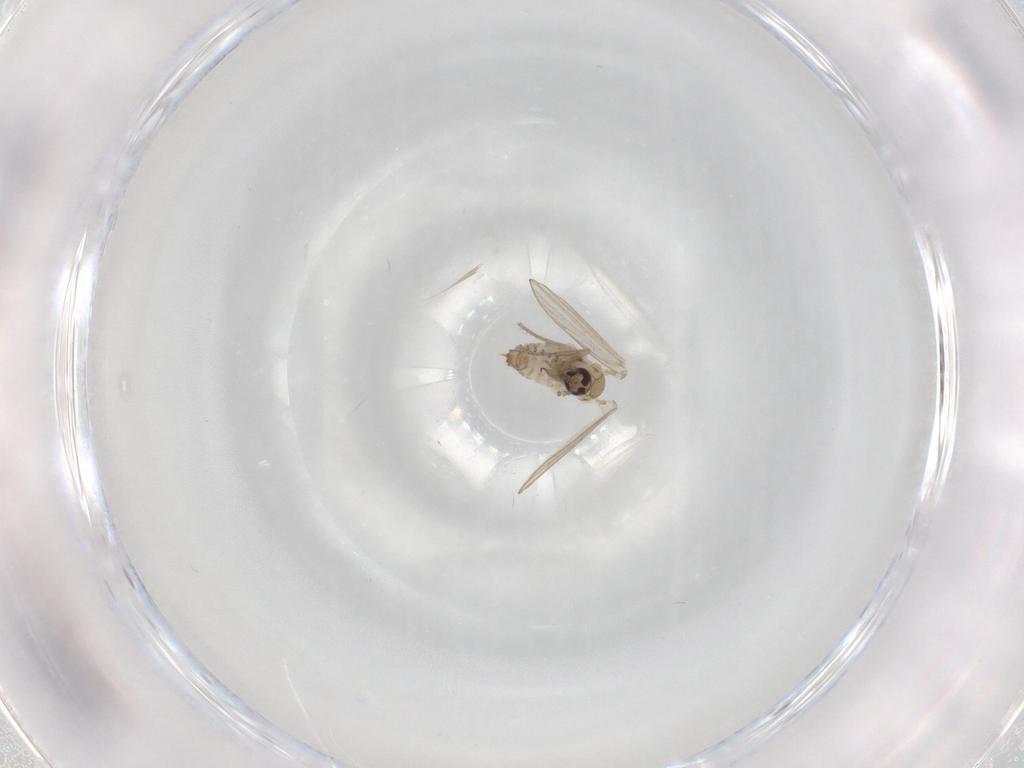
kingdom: Animalia
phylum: Arthropoda
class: Insecta
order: Diptera
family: Psychodidae
